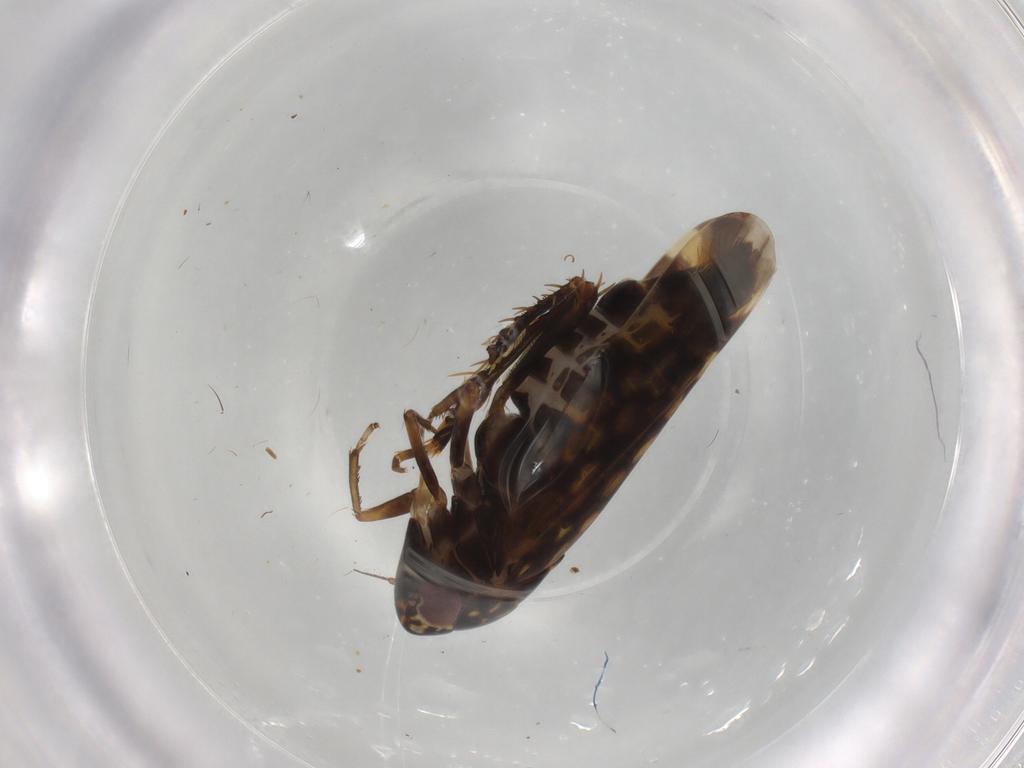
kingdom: Animalia
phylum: Arthropoda
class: Insecta
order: Hemiptera
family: Cicadellidae
